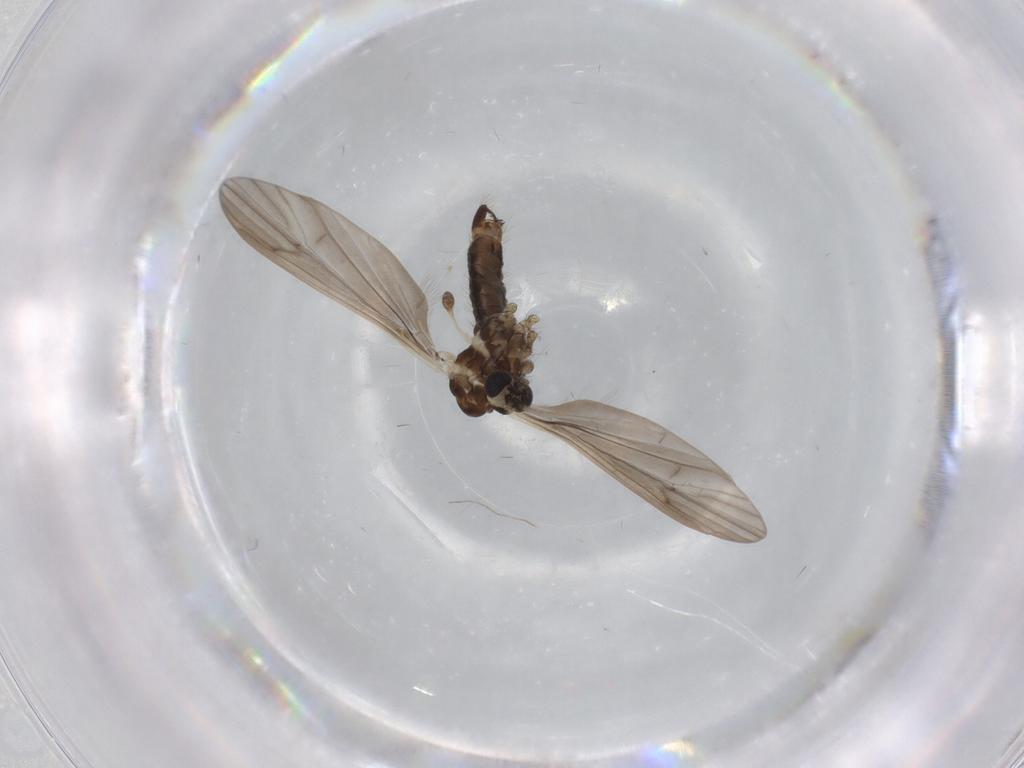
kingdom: Animalia
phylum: Arthropoda
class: Insecta
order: Diptera
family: Limoniidae
